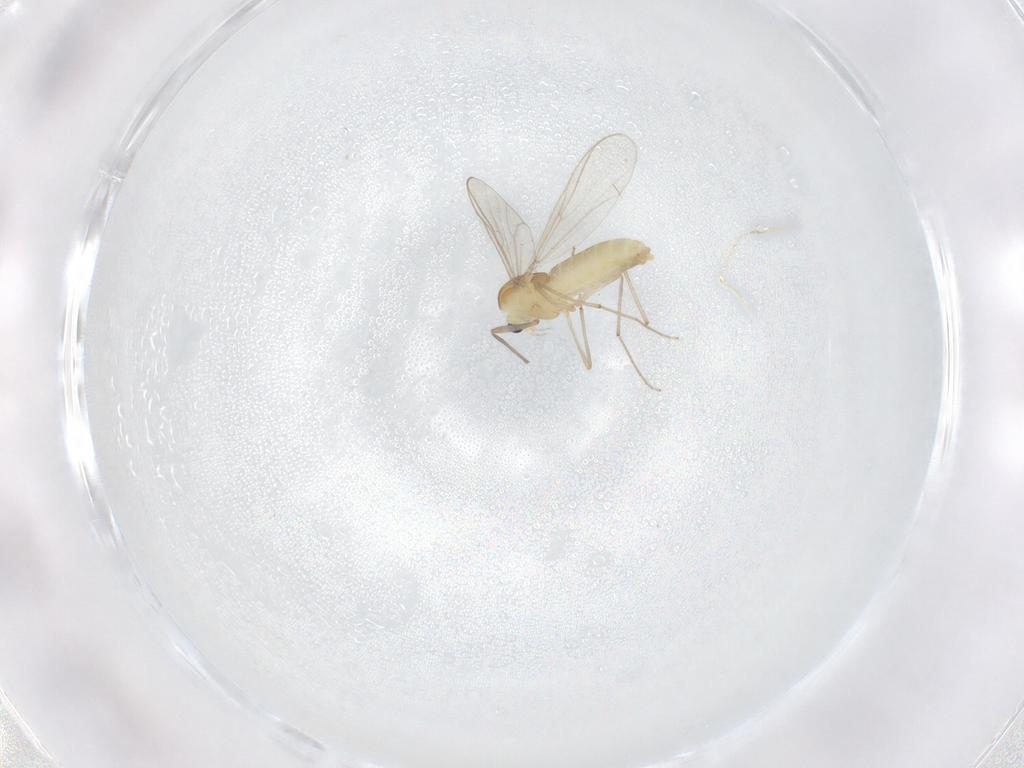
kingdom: Animalia
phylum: Arthropoda
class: Insecta
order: Diptera
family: Chironomidae
